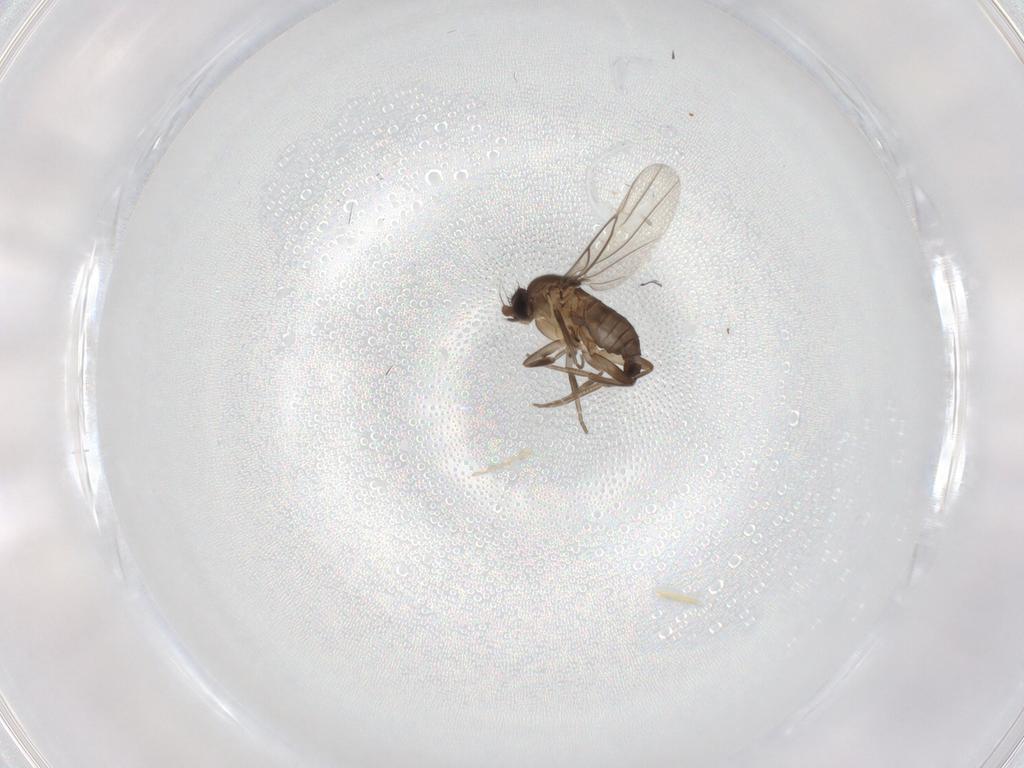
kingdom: Animalia
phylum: Arthropoda
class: Insecta
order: Diptera
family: Phoridae
